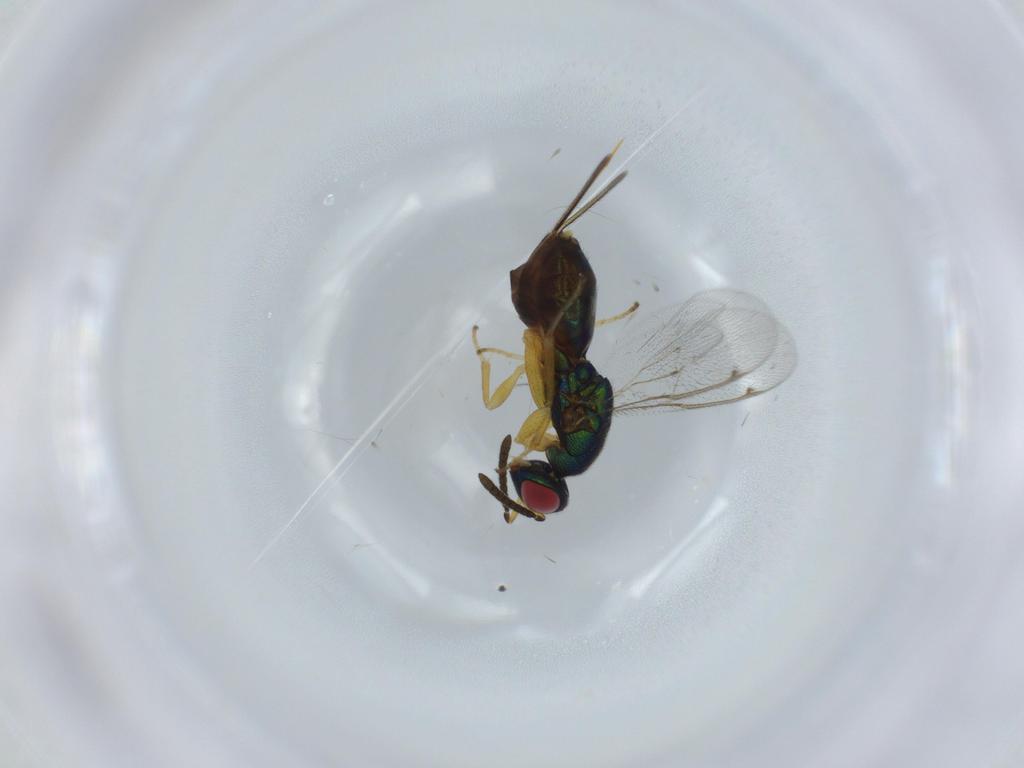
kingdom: Animalia
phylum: Arthropoda
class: Insecta
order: Hymenoptera
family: Torymidae
